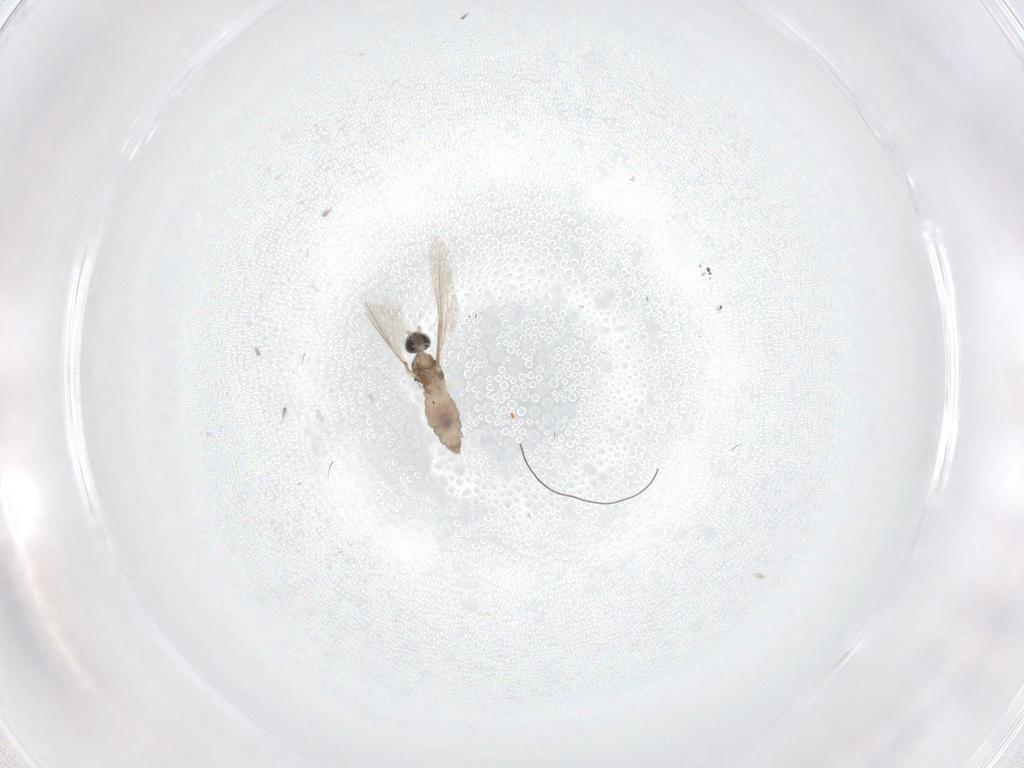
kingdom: Animalia
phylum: Arthropoda
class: Insecta
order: Diptera
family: Cecidomyiidae
